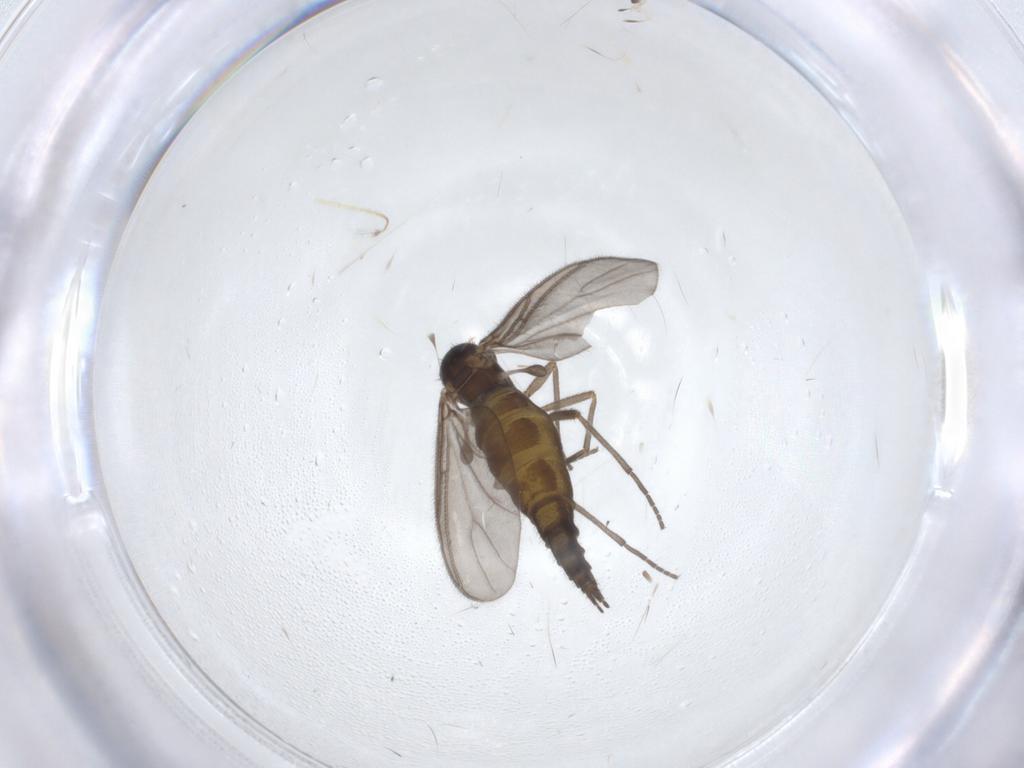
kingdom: Animalia
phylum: Arthropoda
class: Insecta
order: Diptera
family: Sciaridae
